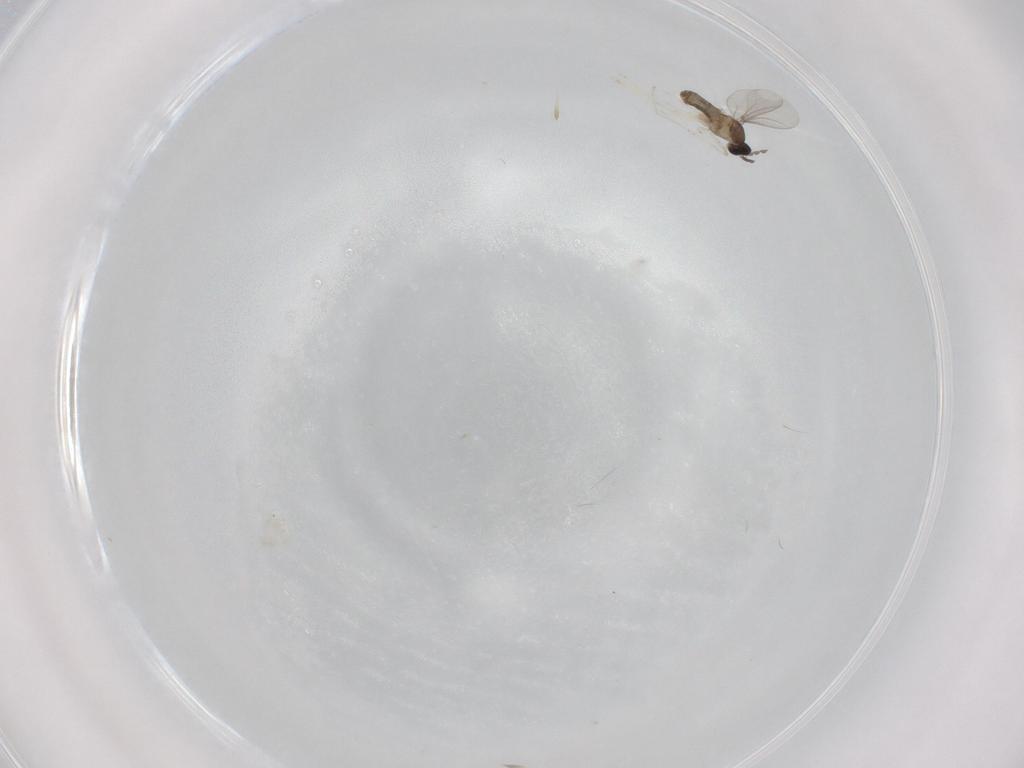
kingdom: Animalia
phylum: Arthropoda
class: Insecta
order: Diptera
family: Cecidomyiidae
